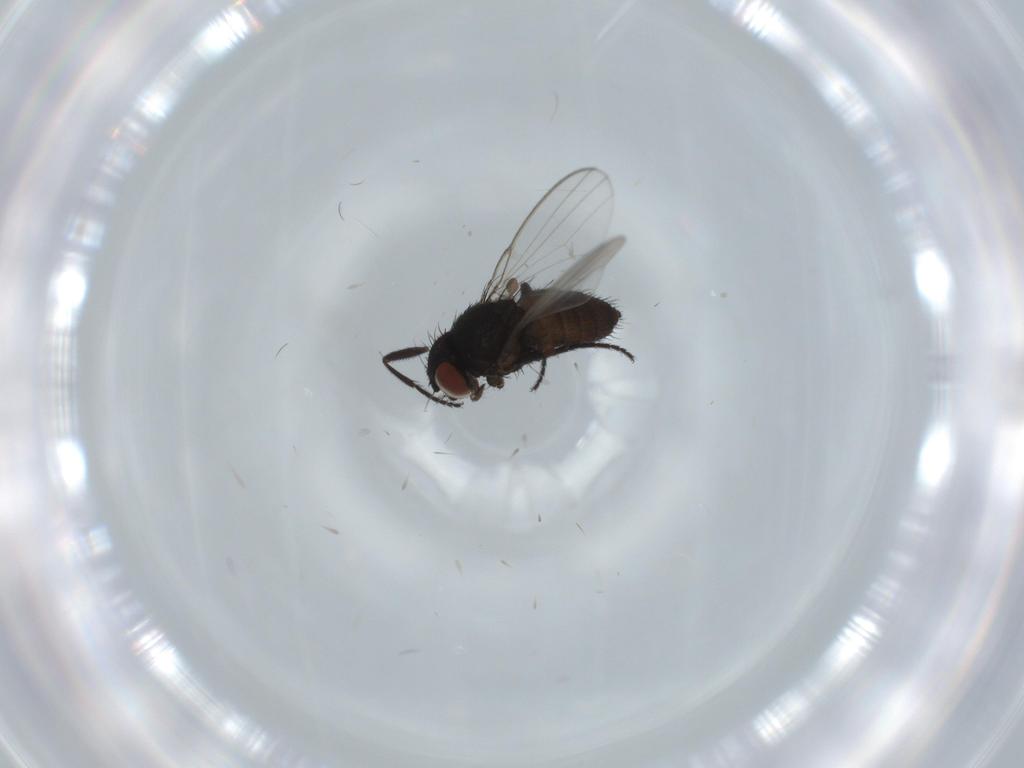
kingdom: Animalia
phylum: Arthropoda
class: Insecta
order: Diptera
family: Milichiidae
